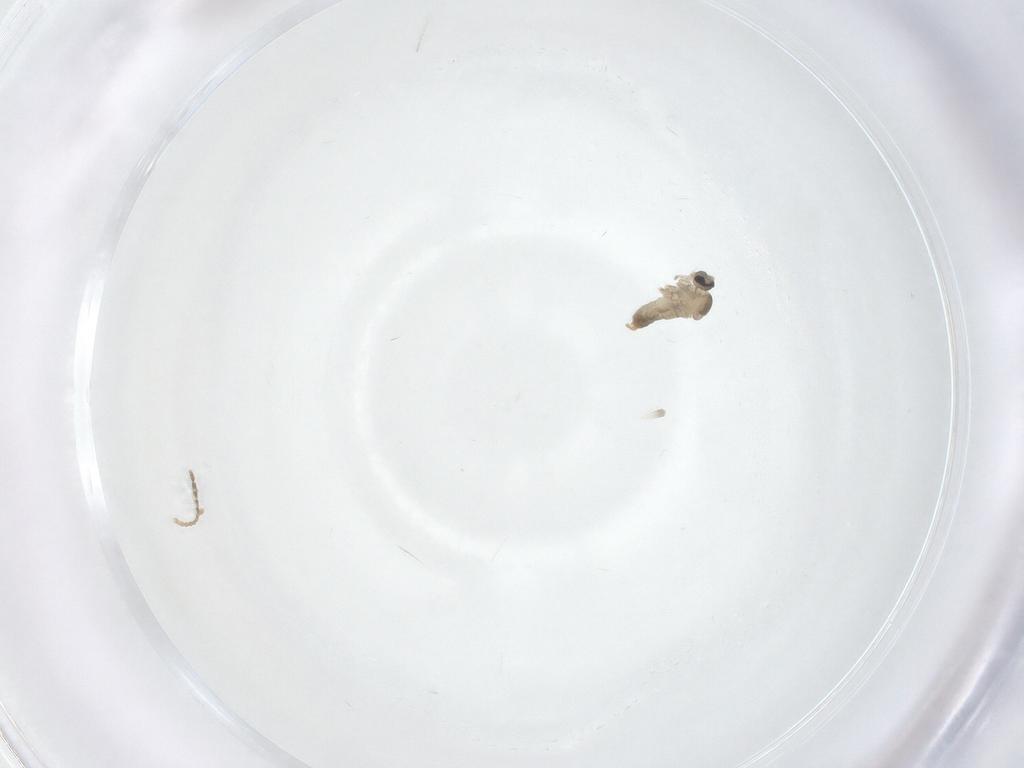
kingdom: Animalia
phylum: Arthropoda
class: Insecta
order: Diptera
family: Cecidomyiidae
